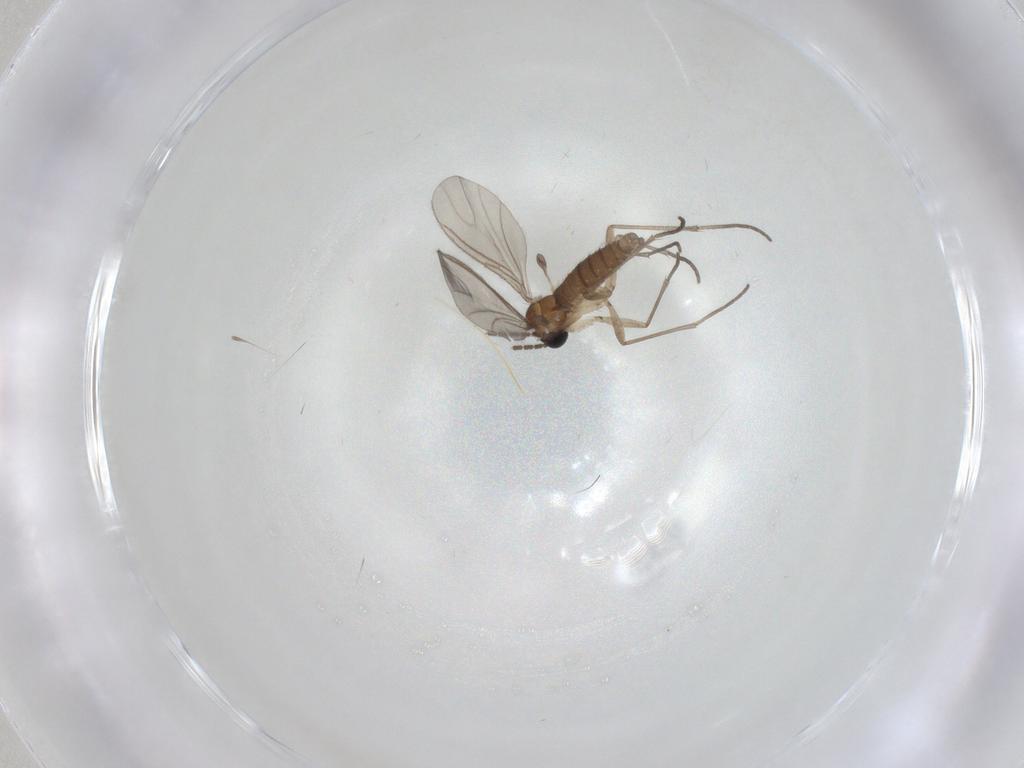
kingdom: Animalia
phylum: Arthropoda
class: Insecta
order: Diptera
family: Sciaridae
